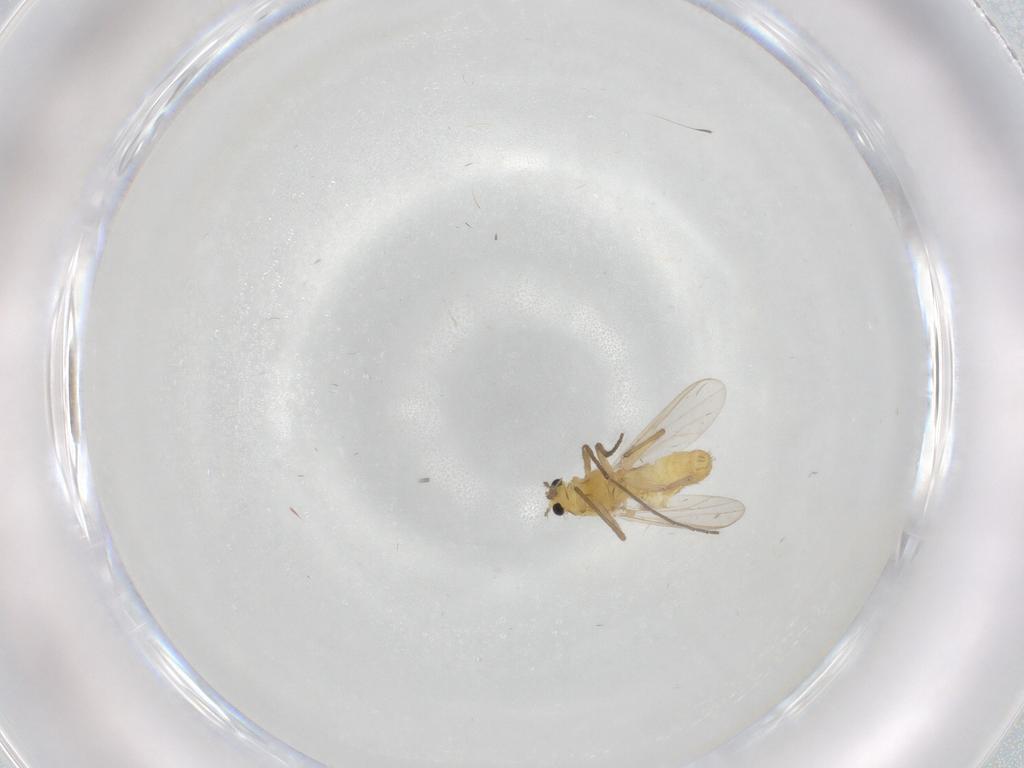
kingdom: Animalia
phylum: Arthropoda
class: Insecta
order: Diptera
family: Chironomidae
